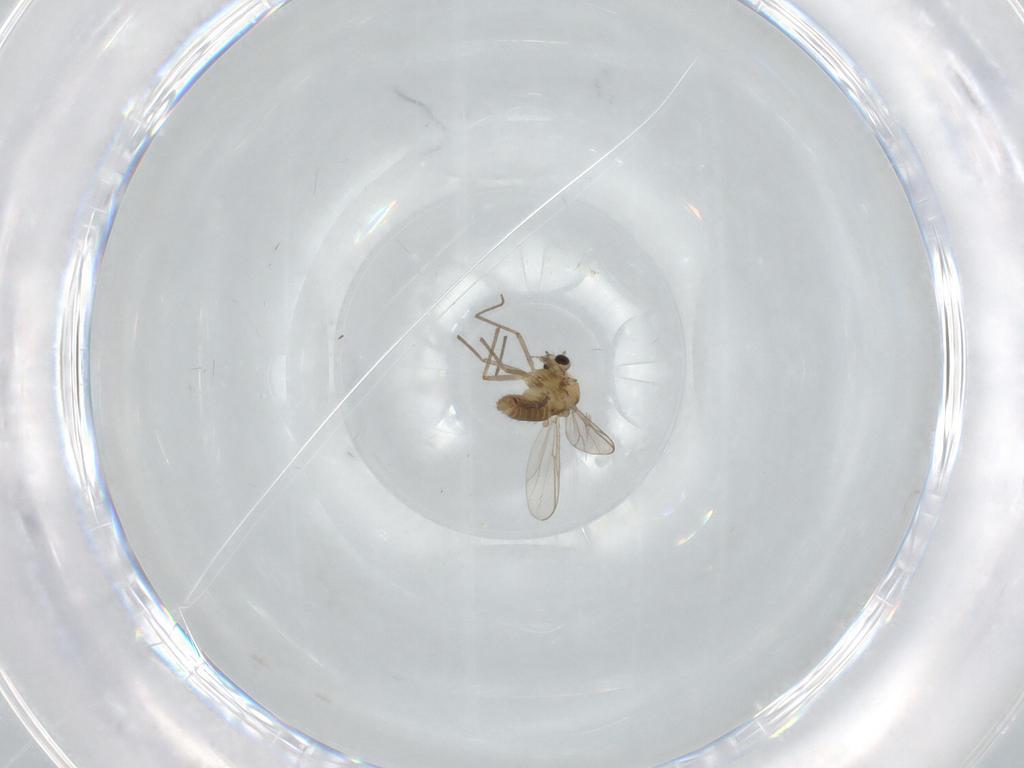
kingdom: Animalia
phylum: Arthropoda
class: Insecta
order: Diptera
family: Chironomidae
